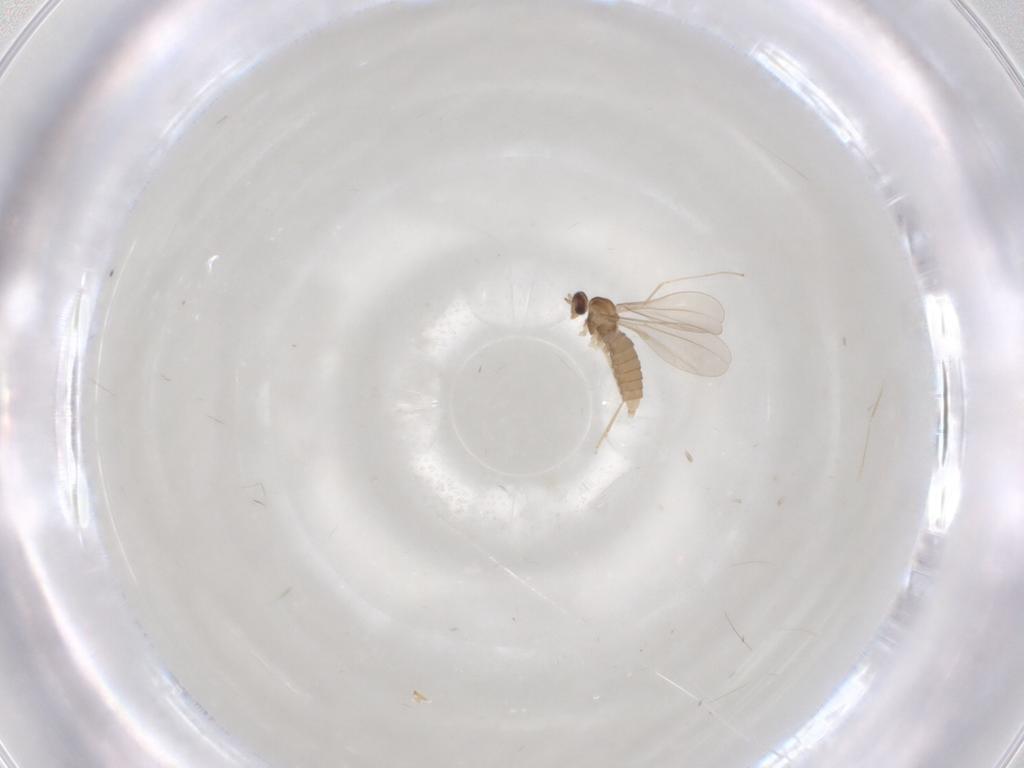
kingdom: Animalia
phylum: Arthropoda
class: Insecta
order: Diptera
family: Cecidomyiidae
